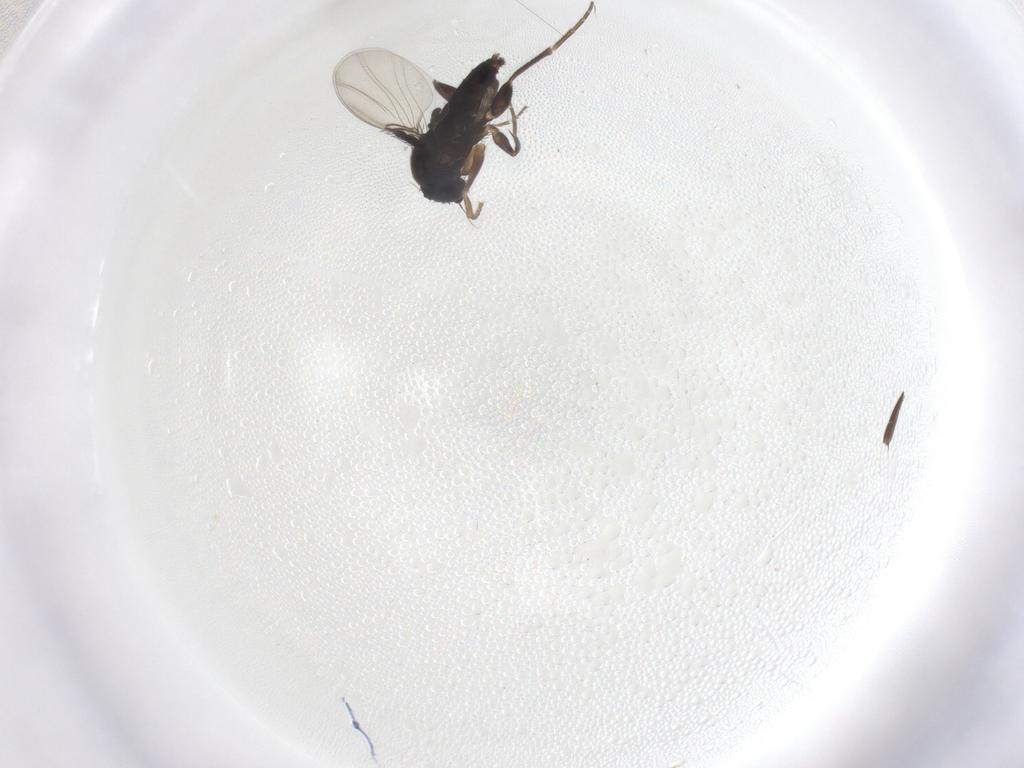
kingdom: Animalia
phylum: Arthropoda
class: Insecta
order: Diptera
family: Phoridae
